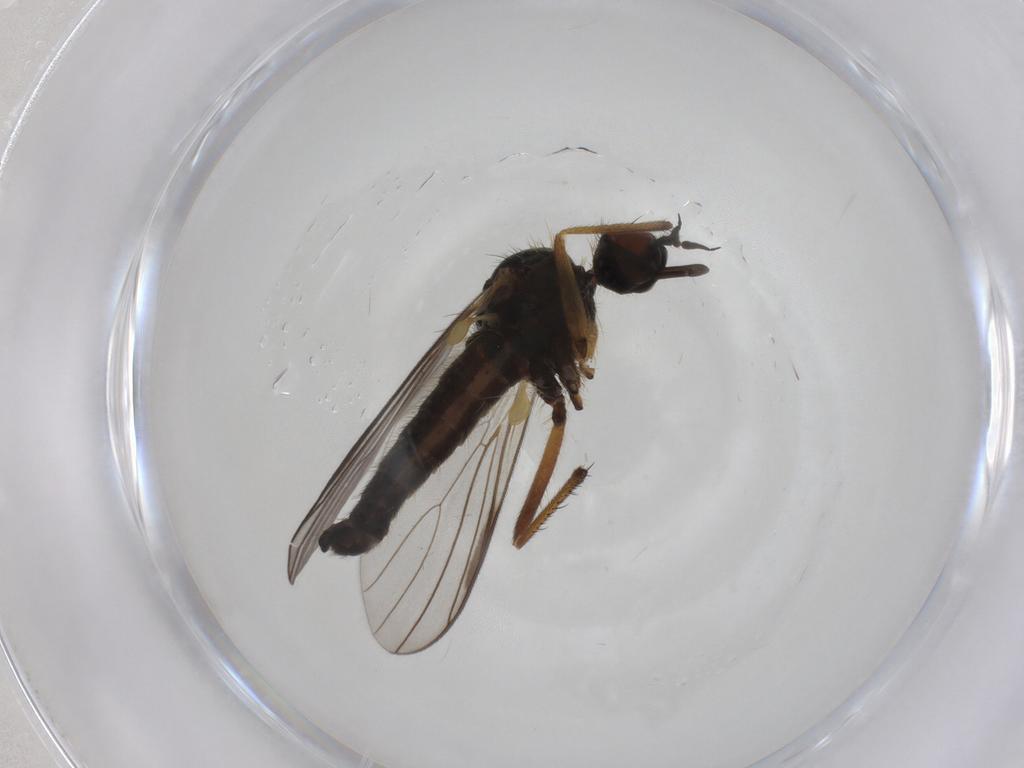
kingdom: Animalia
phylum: Arthropoda
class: Insecta
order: Diptera
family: Empididae
